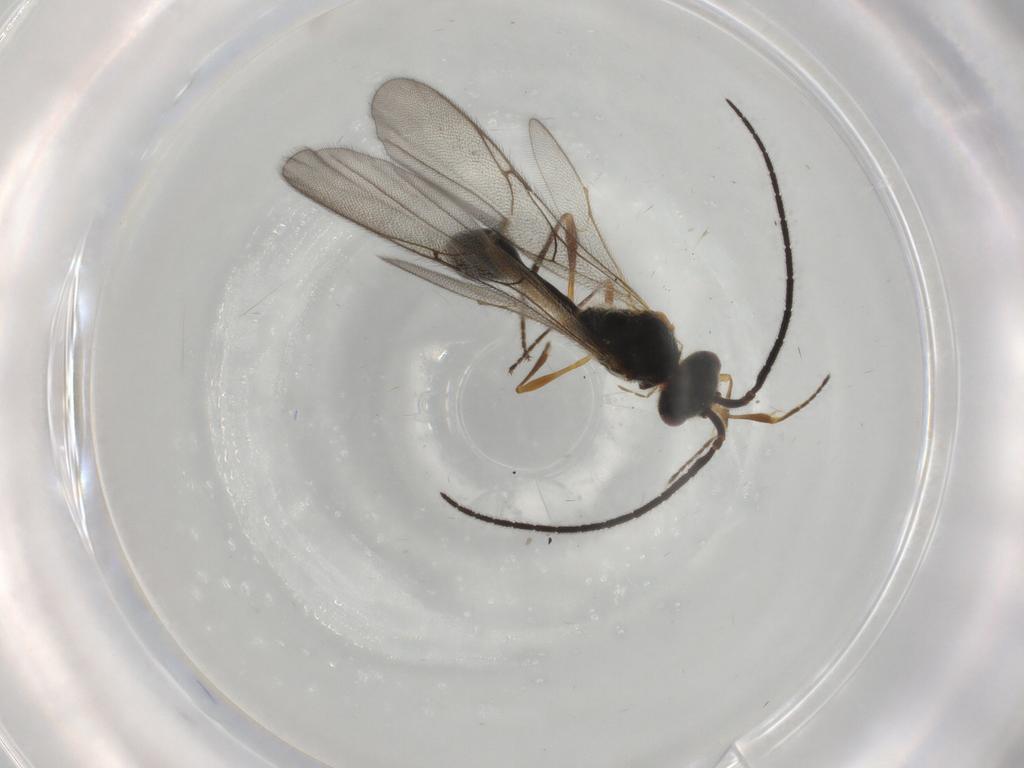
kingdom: Animalia
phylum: Arthropoda
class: Insecta
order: Hymenoptera
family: Diapriidae
